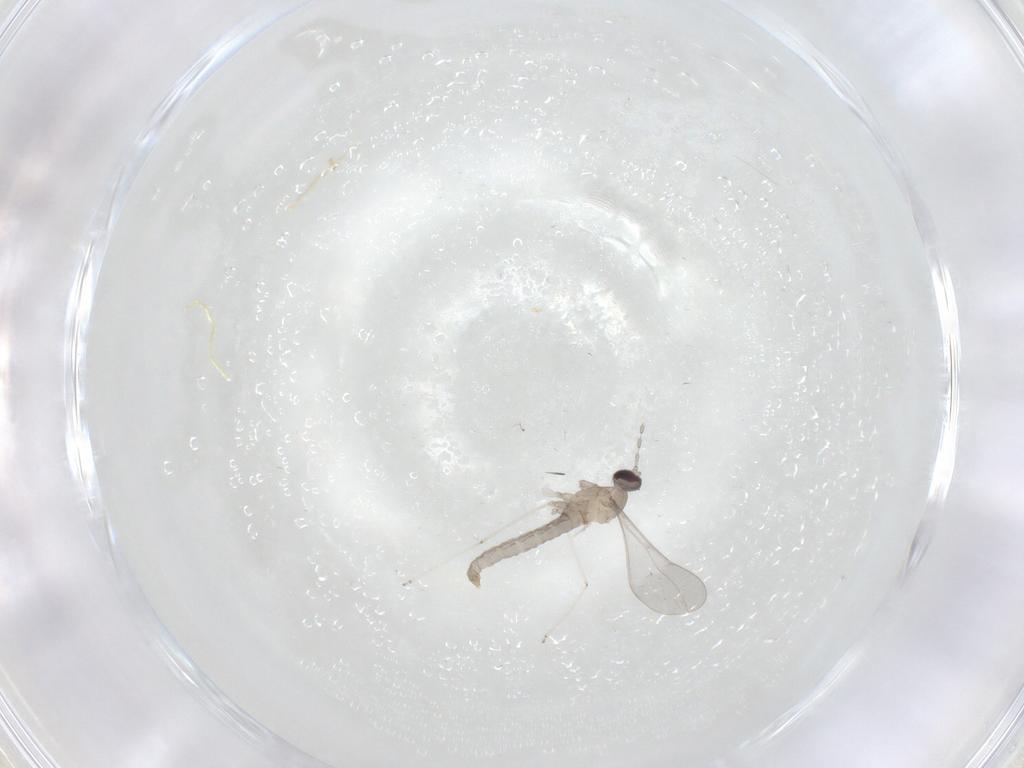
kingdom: Animalia
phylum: Arthropoda
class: Insecta
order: Diptera
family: Cecidomyiidae
